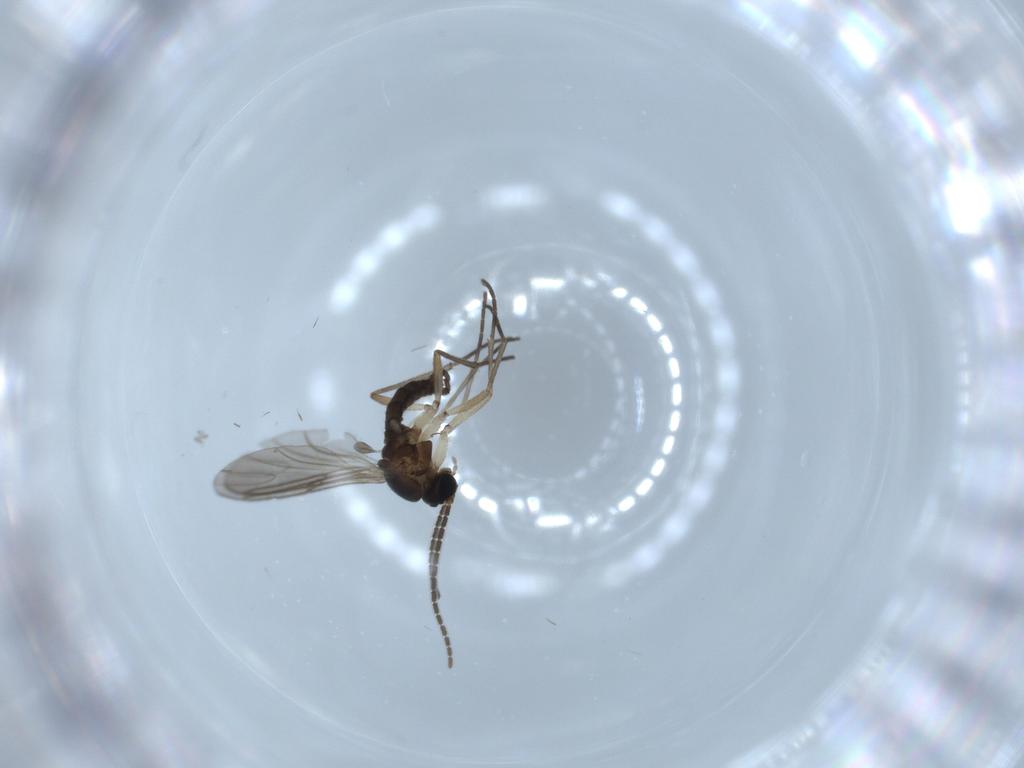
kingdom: Animalia
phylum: Arthropoda
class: Insecta
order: Diptera
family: Sciaridae
